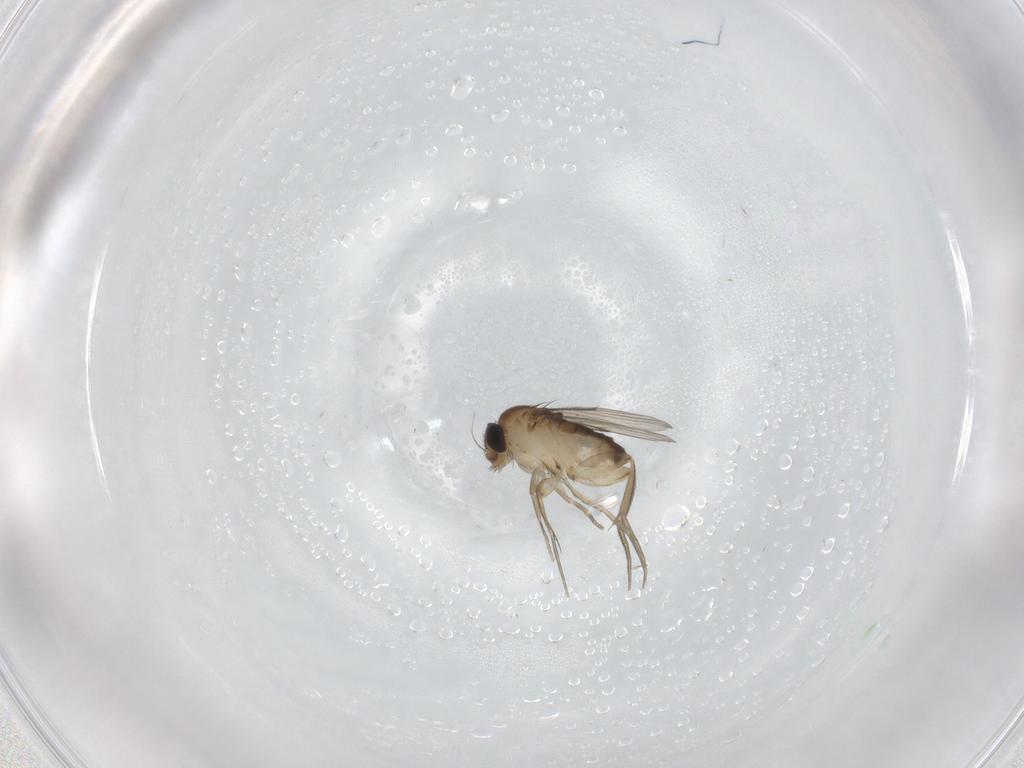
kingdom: Animalia
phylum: Arthropoda
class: Insecta
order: Diptera
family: Phoridae
